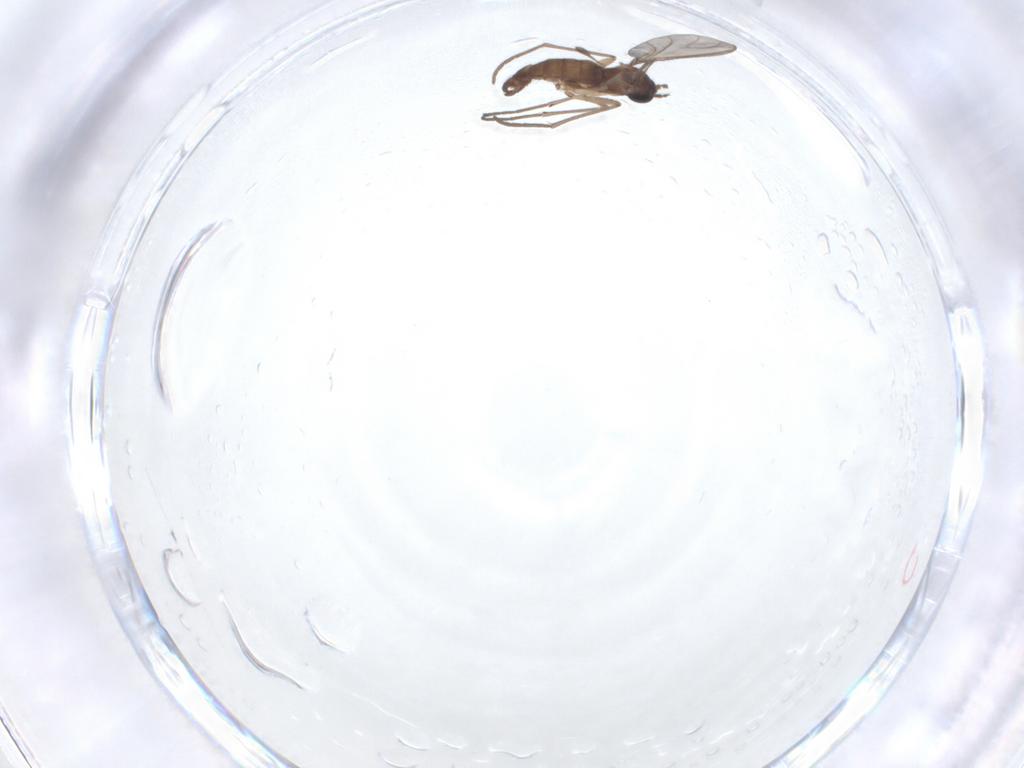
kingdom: Animalia
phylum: Arthropoda
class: Insecta
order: Diptera
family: Sciaridae
